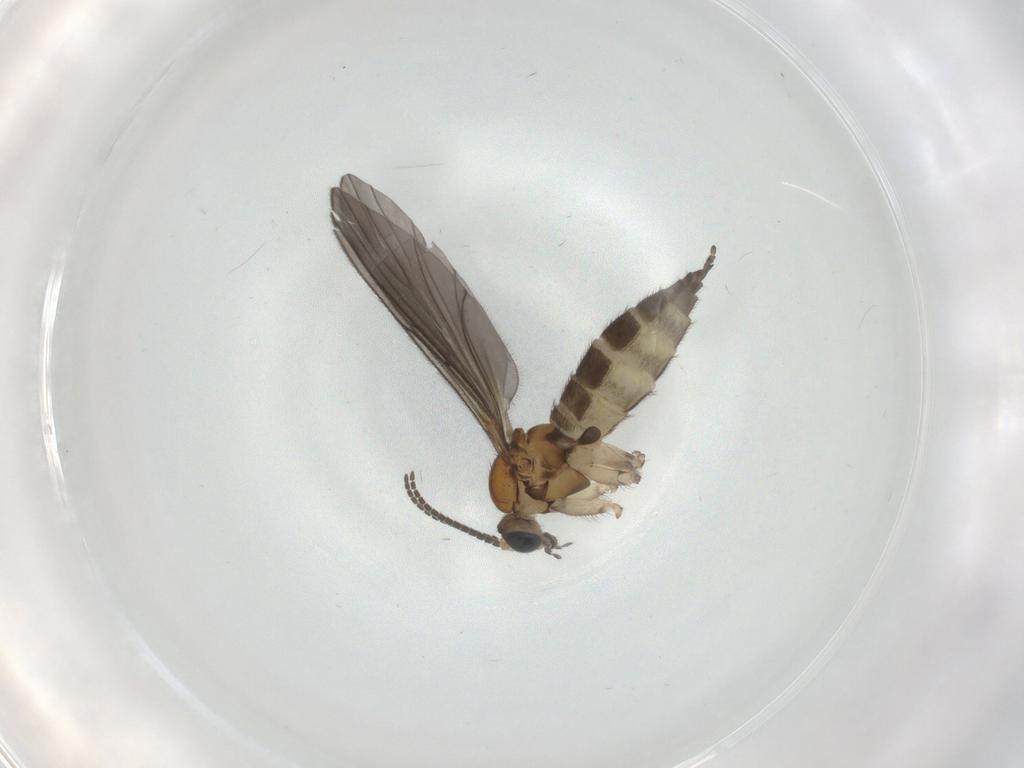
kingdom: Animalia
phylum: Arthropoda
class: Insecta
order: Diptera
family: Sciaridae
